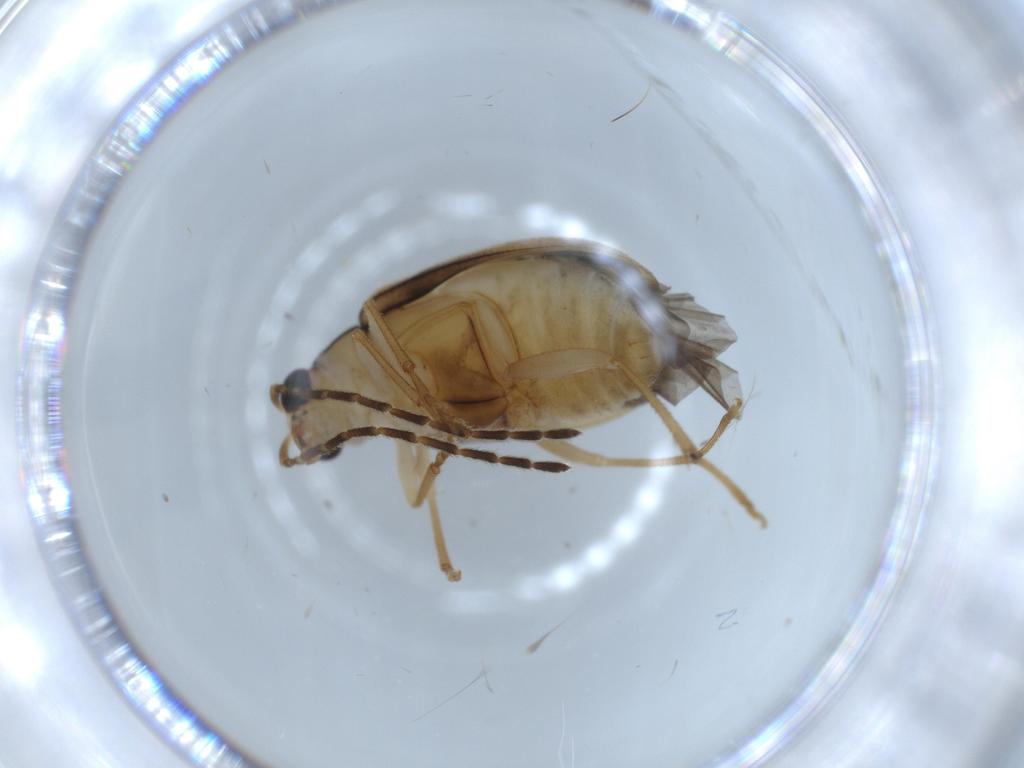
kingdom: Animalia
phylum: Arthropoda
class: Insecta
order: Coleoptera
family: Chrysomelidae
